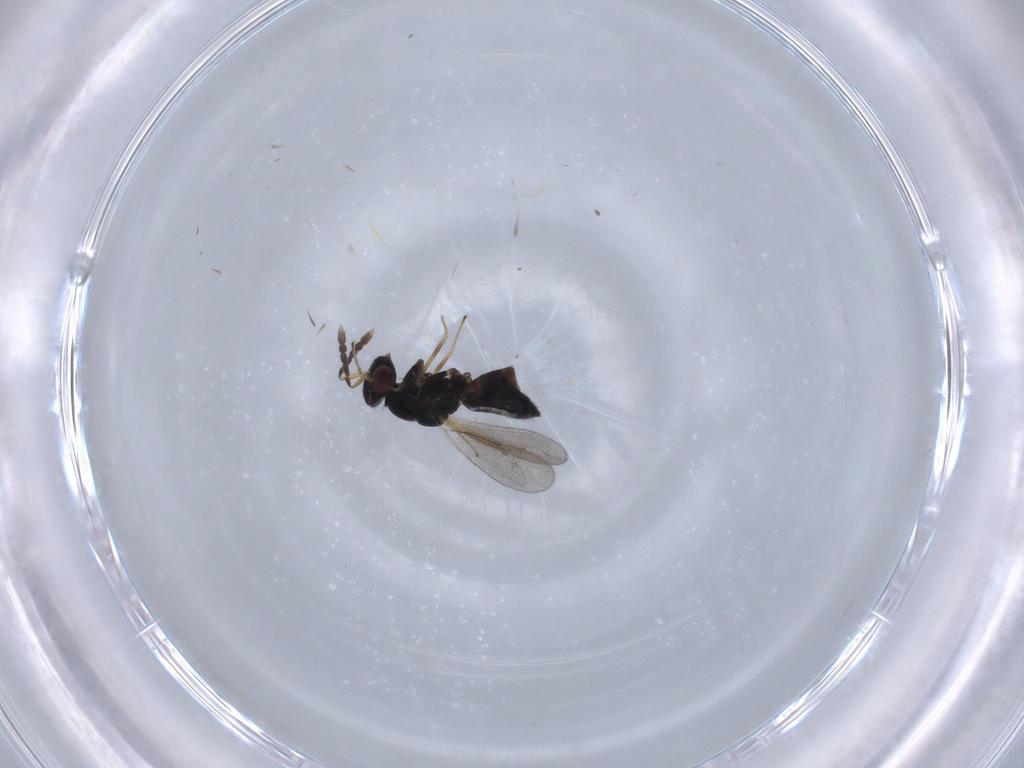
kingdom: Animalia
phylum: Arthropoda
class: Insecta
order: Hymenoptera
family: Eulophidae
